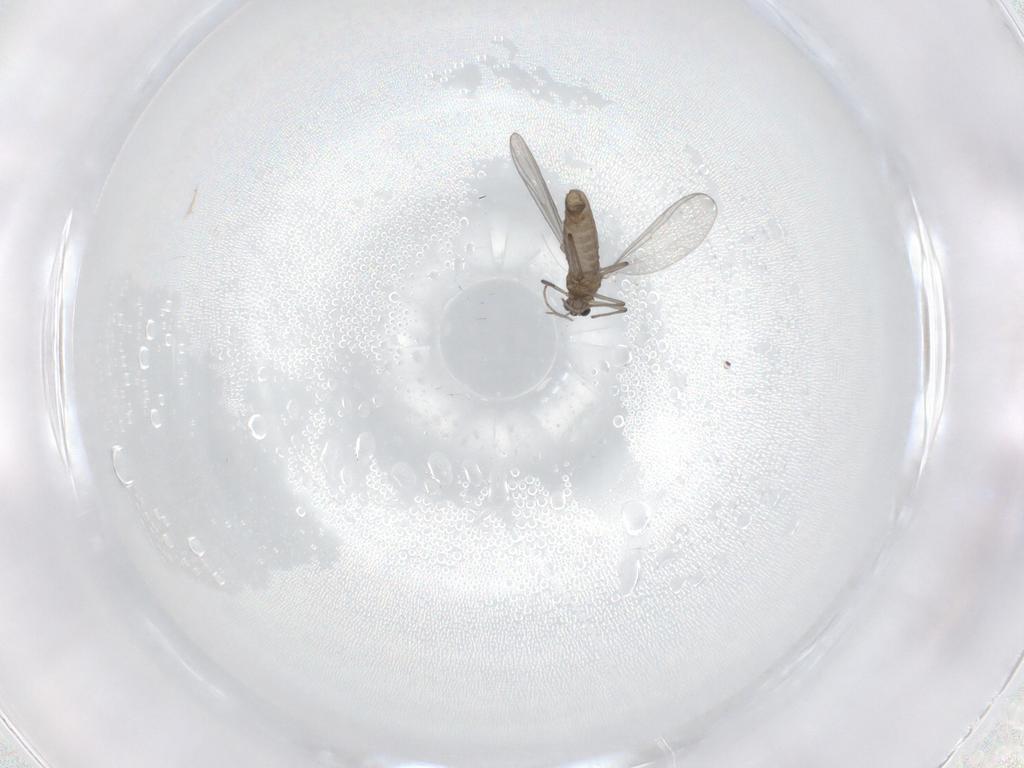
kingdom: Animalia
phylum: Arthropoda
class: Insecta
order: Diptera
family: Chironomidae
